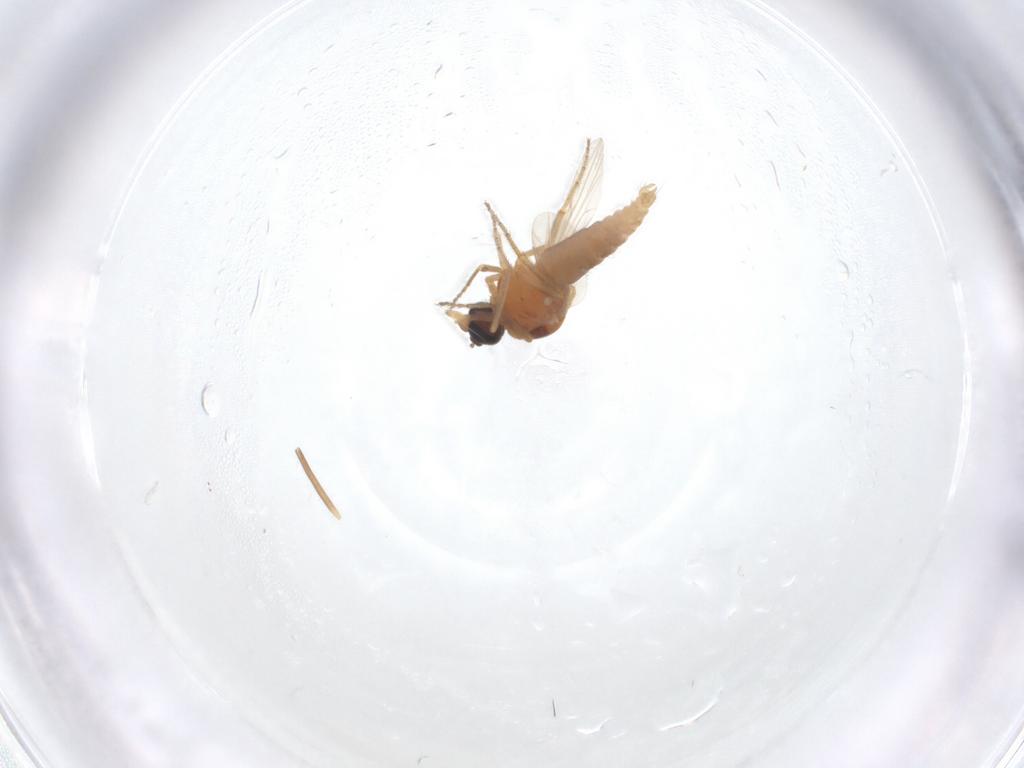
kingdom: Animalia
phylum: Arthropoda
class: Insecta
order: Diptera
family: Ceratopogonidae
